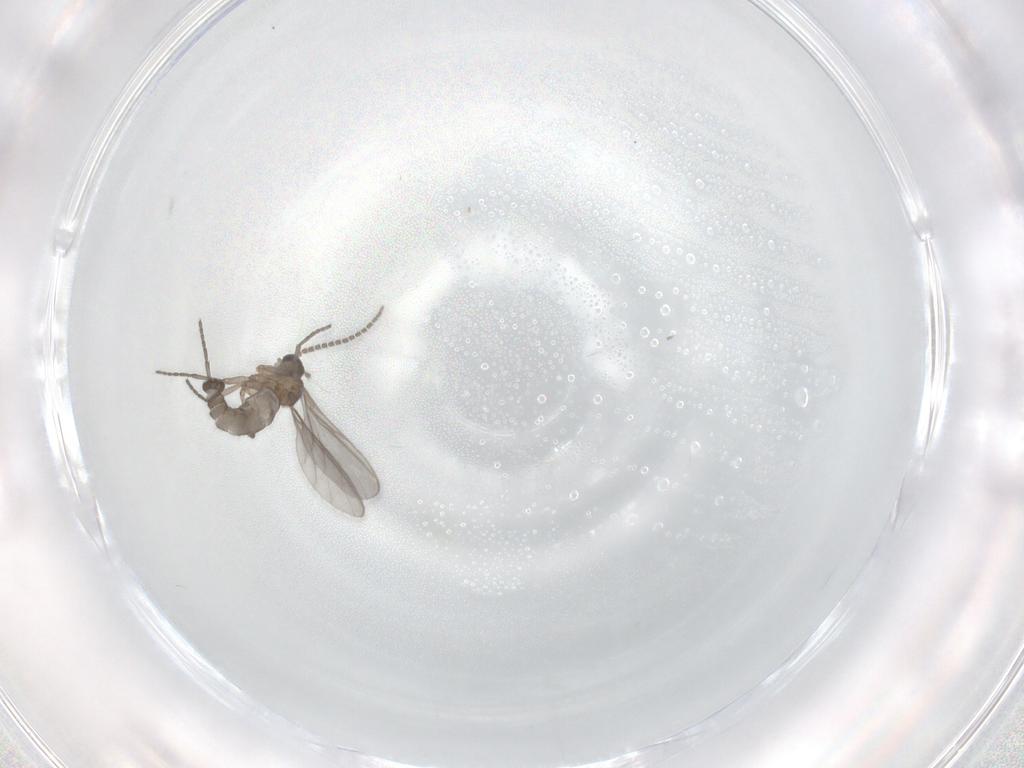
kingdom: Animalia
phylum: Arthropoda
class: Insecta
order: Diptera
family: Sciaridae
